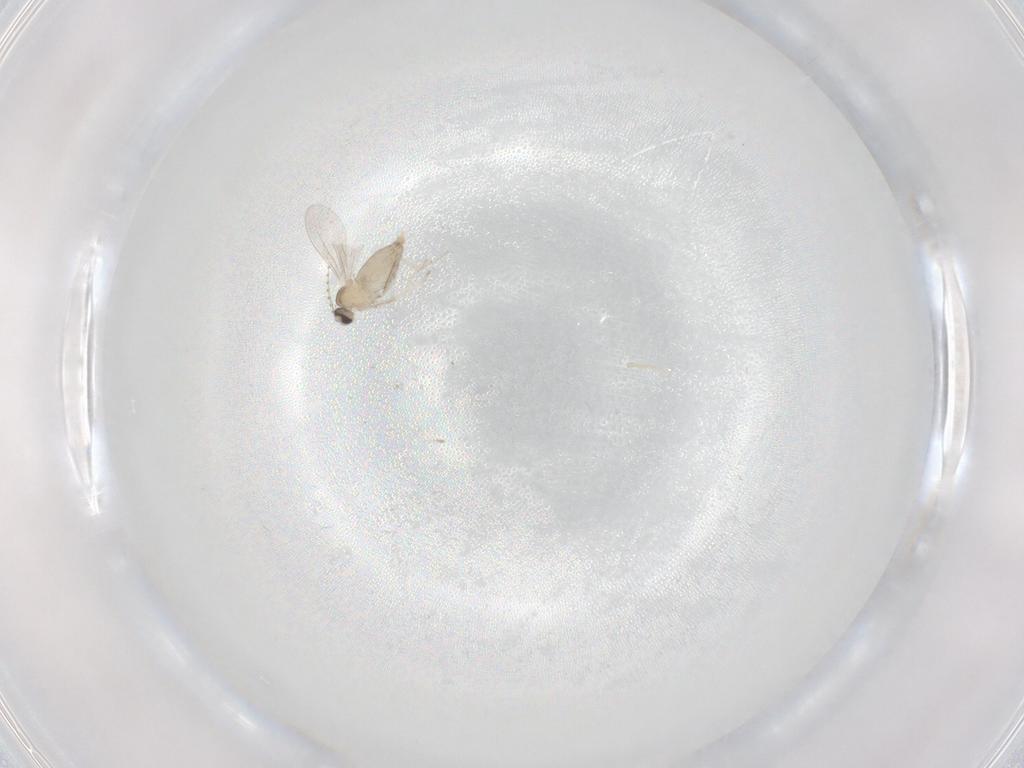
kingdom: Animalia
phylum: Arthropoda
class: Insecta
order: Diptera
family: Cecidomyiidae
